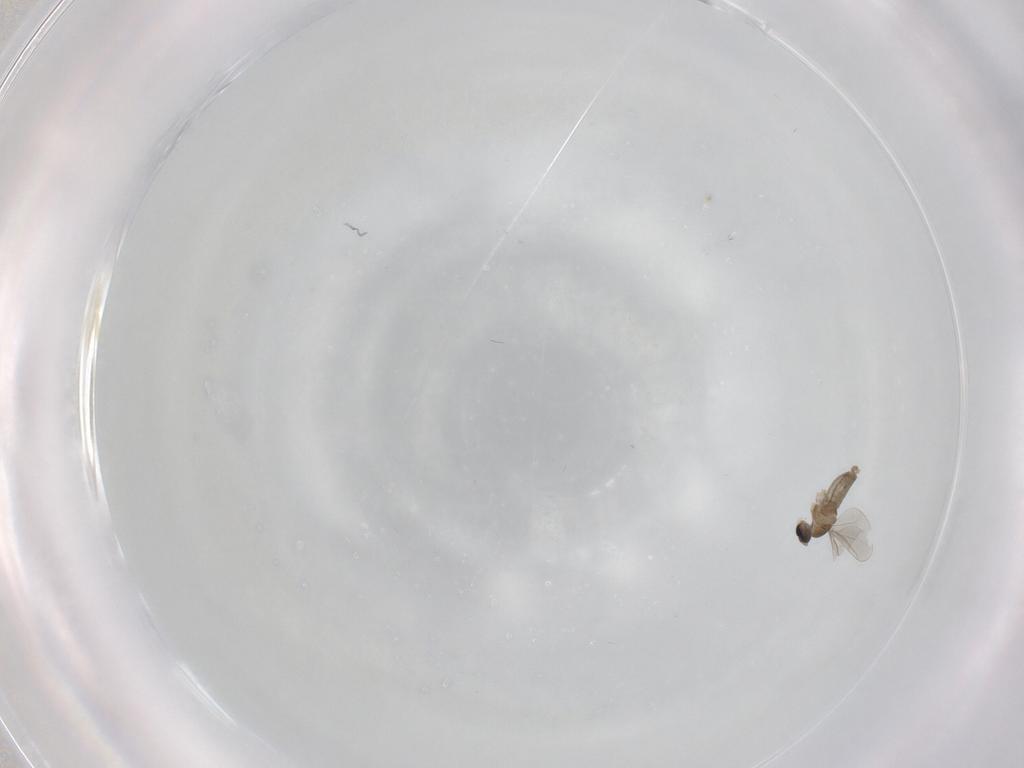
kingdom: Animalia
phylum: Arthropoda
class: Insecta
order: Diptera
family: Cecidomyiidae
